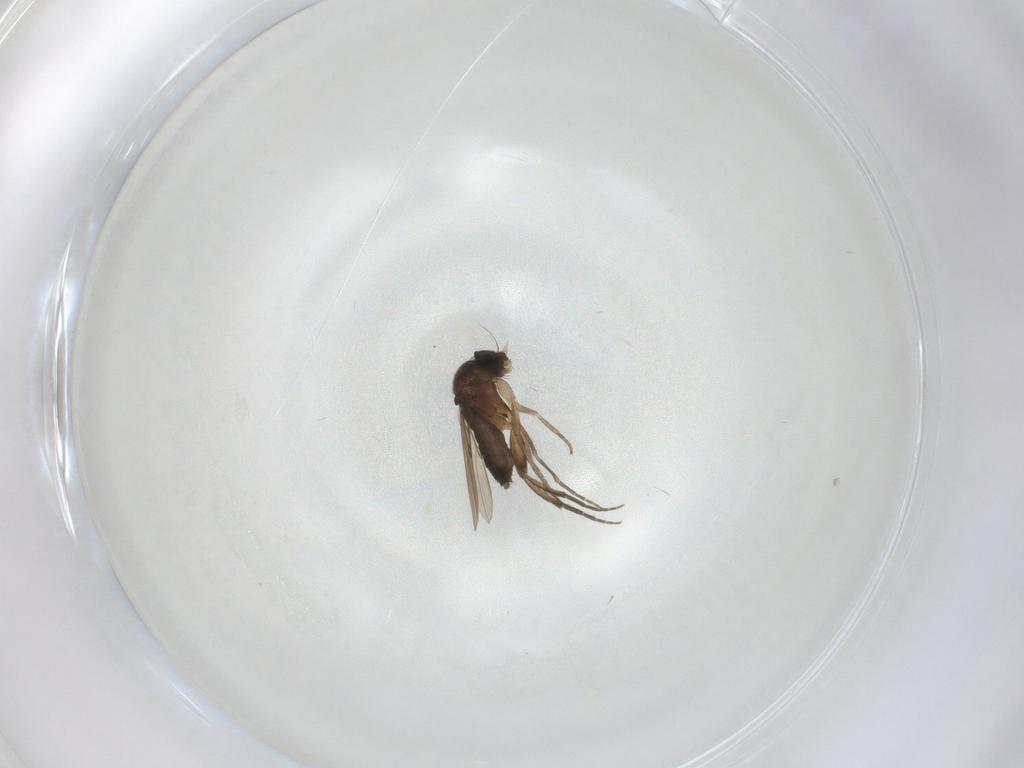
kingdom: Animalia
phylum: Arthropoda
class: Insecta
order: Diptera
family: Phoridae
